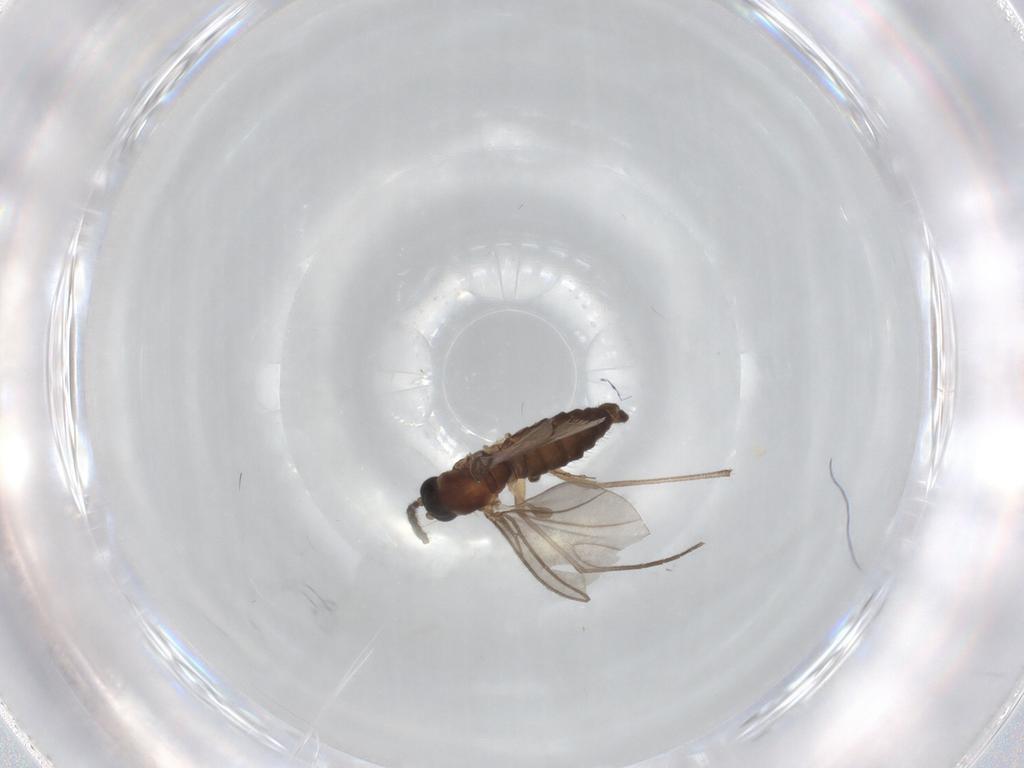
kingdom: Animalia
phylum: Arthropoda
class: Insecta
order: Diptera
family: Sciaridae
